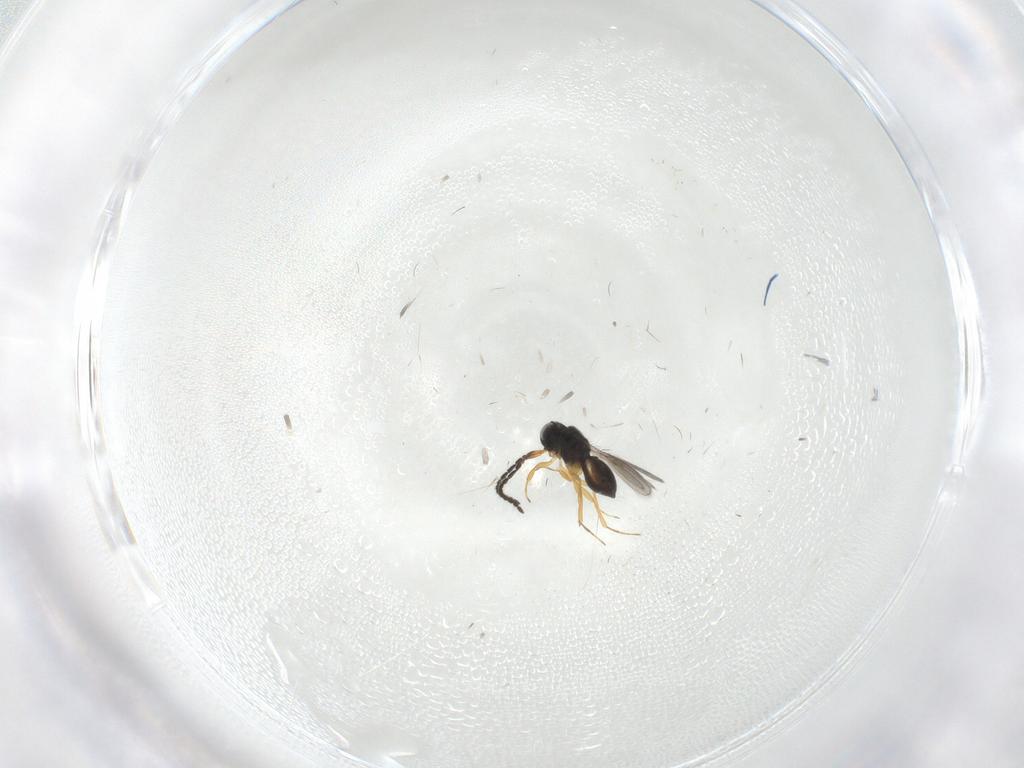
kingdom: Animalia
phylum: Arthropoda
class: Insecta
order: Hymenoptera
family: Scelionidae
